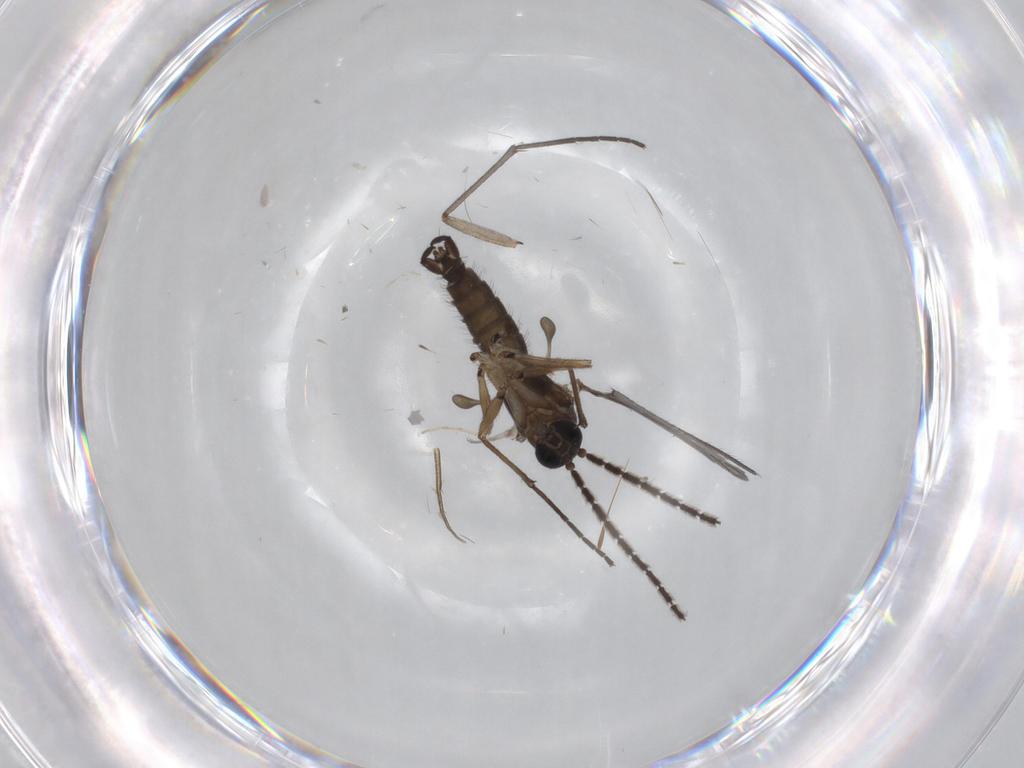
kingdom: Animalia
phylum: Arthropoda
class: Insecta
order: Diptera
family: Sciaridae
